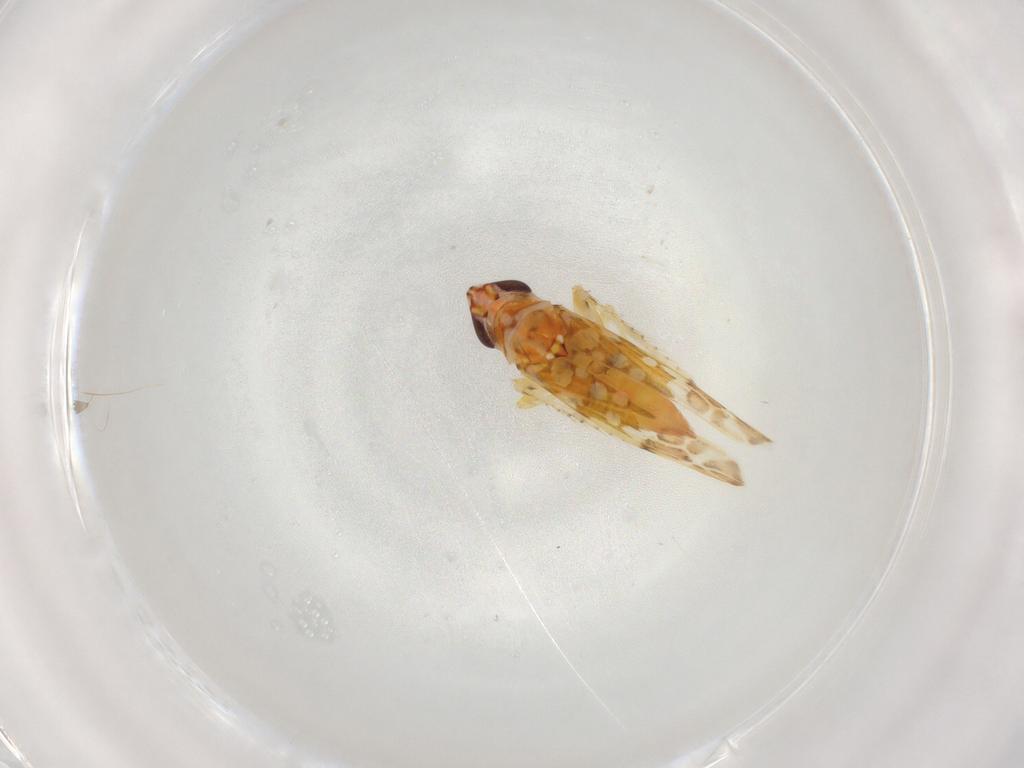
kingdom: Animalia
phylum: Arthropoda
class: Insecta
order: Hemiptera
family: Cicadellidae
